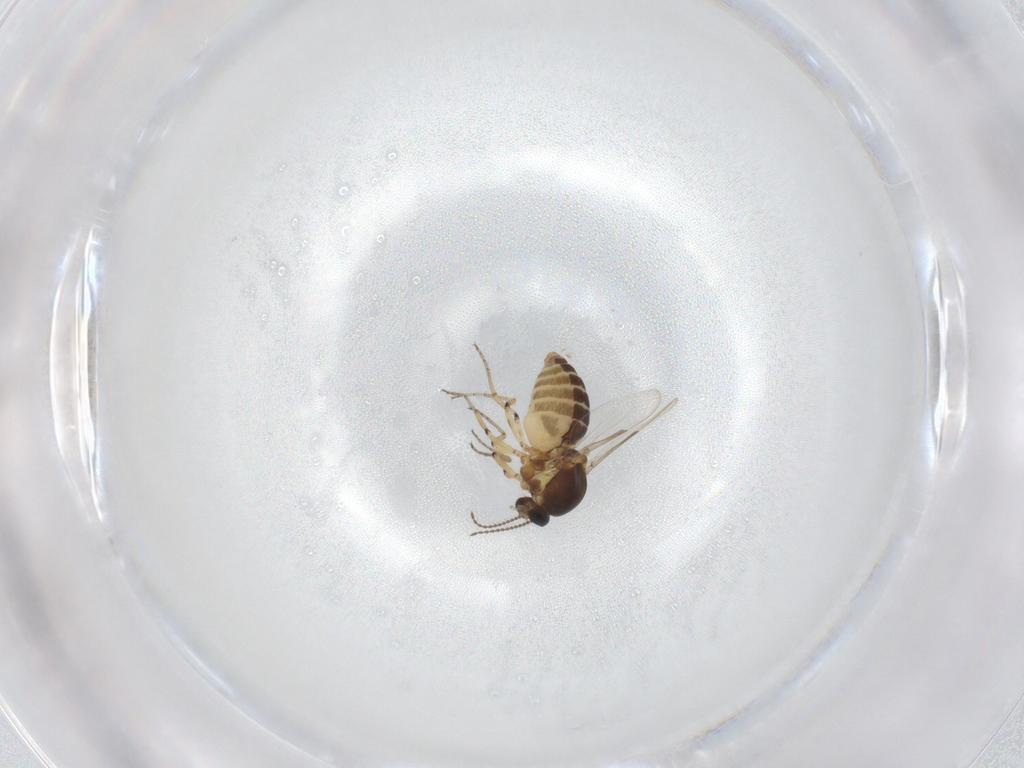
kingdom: Animalia
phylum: Arthropoda
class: Insecta
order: Diptera
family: Ceratopogonidae
